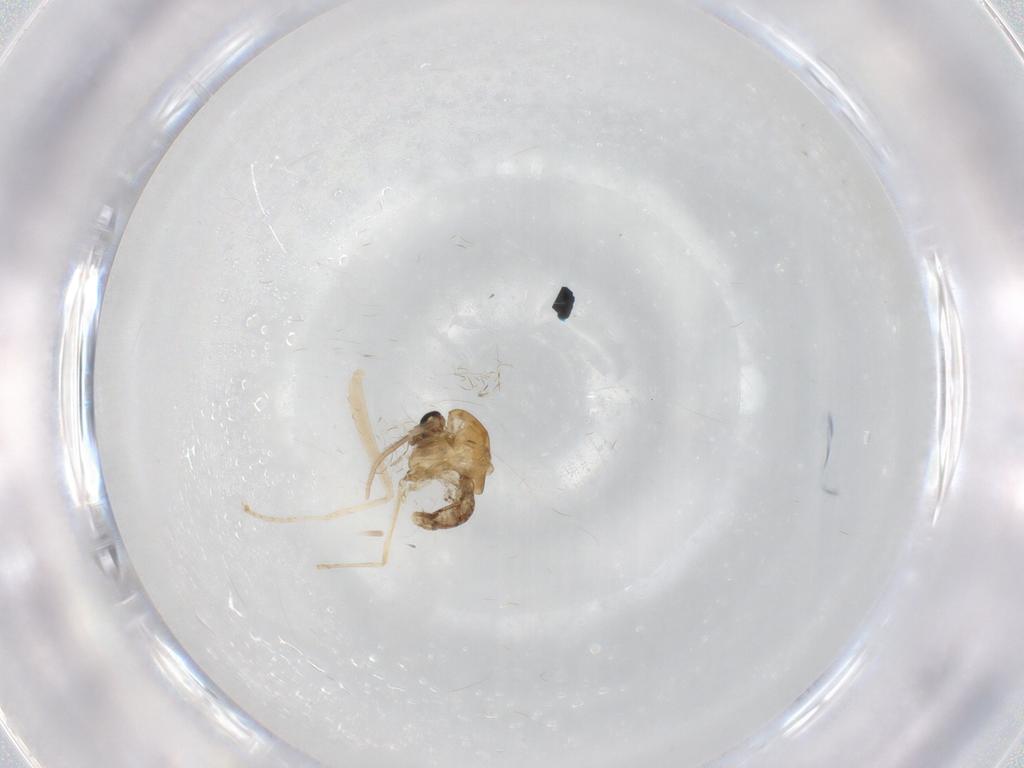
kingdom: Animalia
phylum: Arthropoda
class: Insecta
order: Diptera
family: Chironomidae
